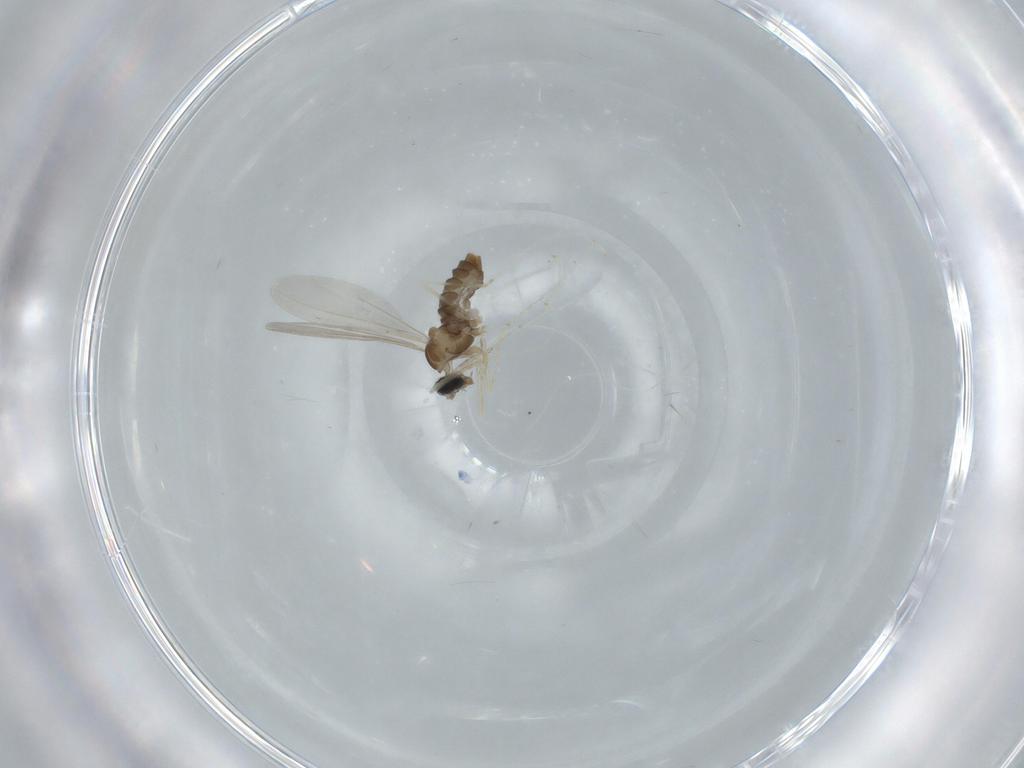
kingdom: Animalia
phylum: Arthropoda
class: Insecta
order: Diptera
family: Cecidomyiidae
